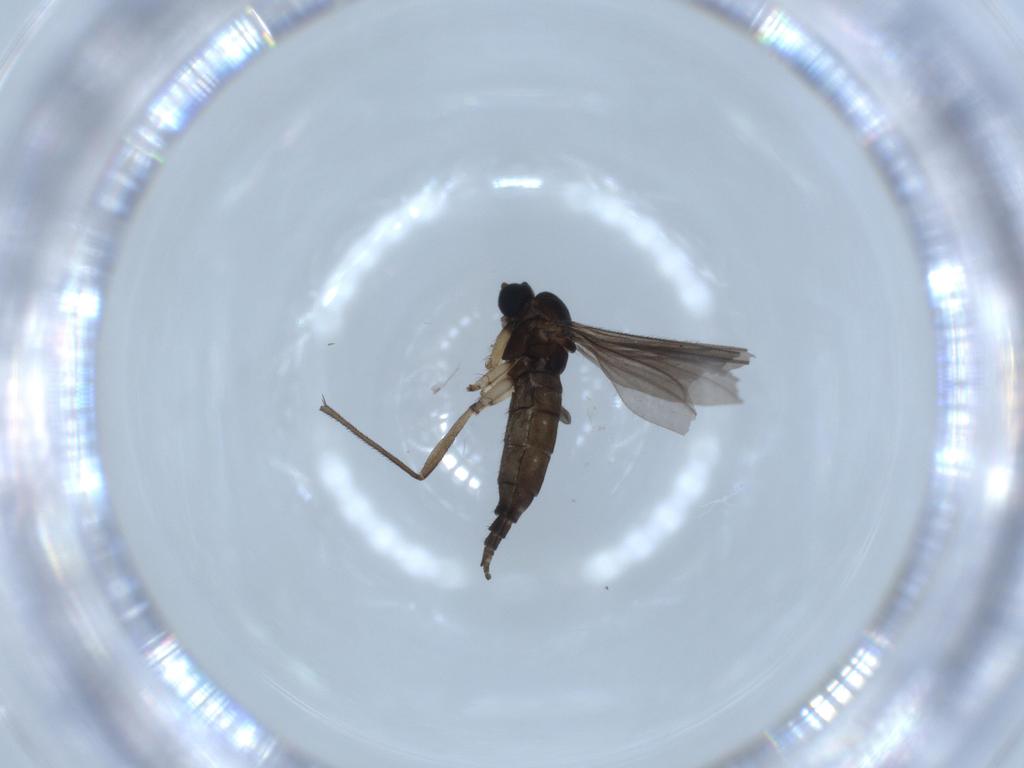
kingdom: Animalia
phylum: Arthropoda
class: Insecta
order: Diptera
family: Sciaridae
